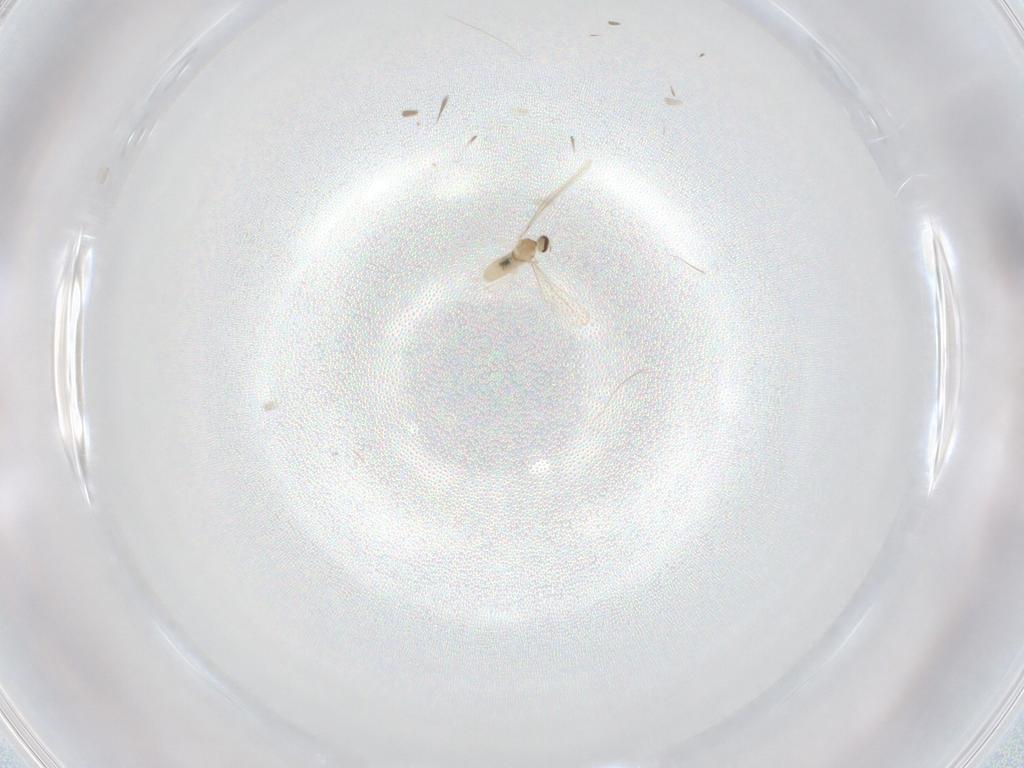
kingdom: Animalia
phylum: Arthropoda
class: Insecta
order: Diptera
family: Cecidomyiidae
